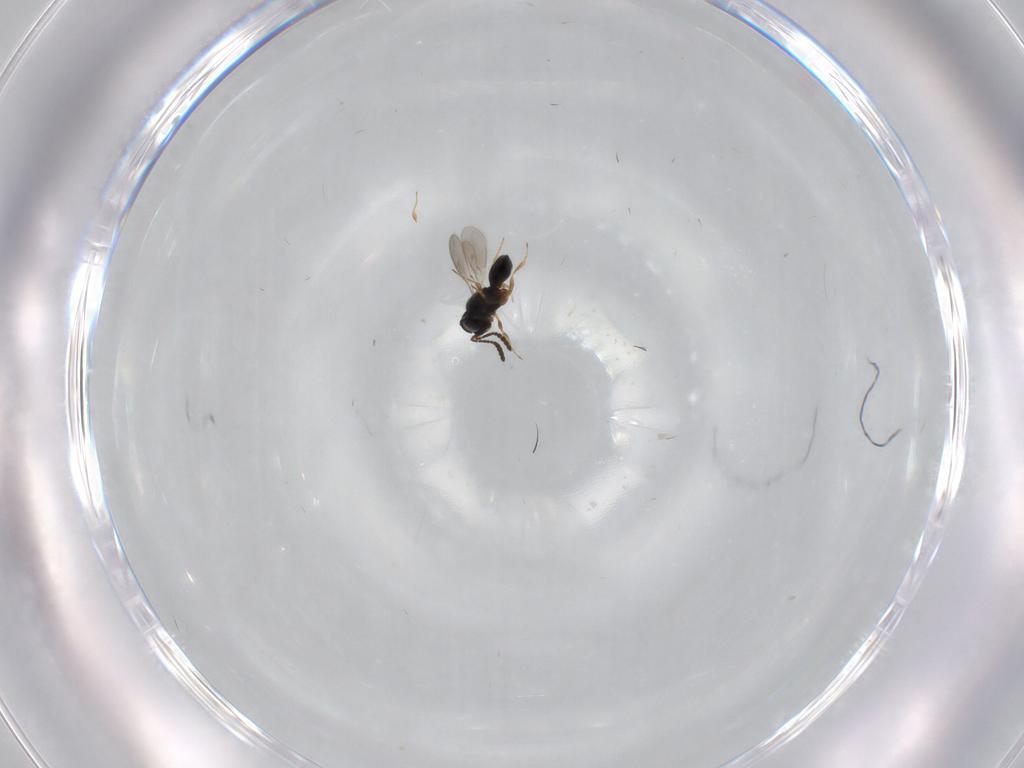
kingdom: Animalia
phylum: Arthropoda
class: Insecta
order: Hymenoptera
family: Scelionidae
